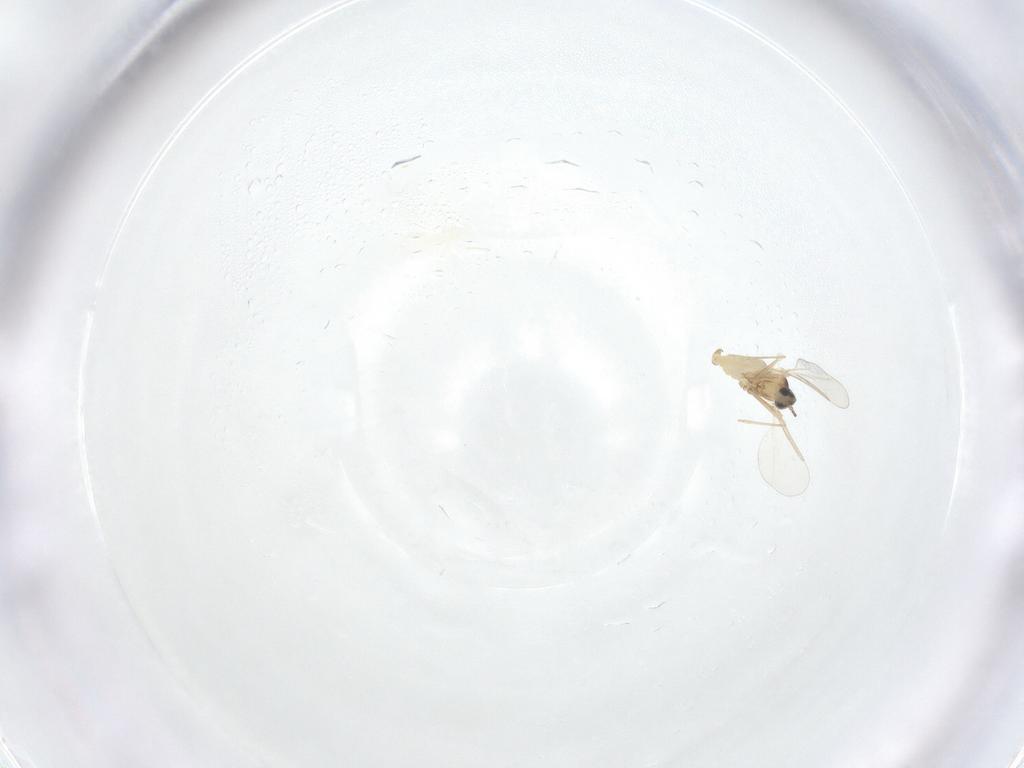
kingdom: Animalia
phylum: Arthropoda
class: Insecta
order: Diptera
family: Cecidomyiidae
